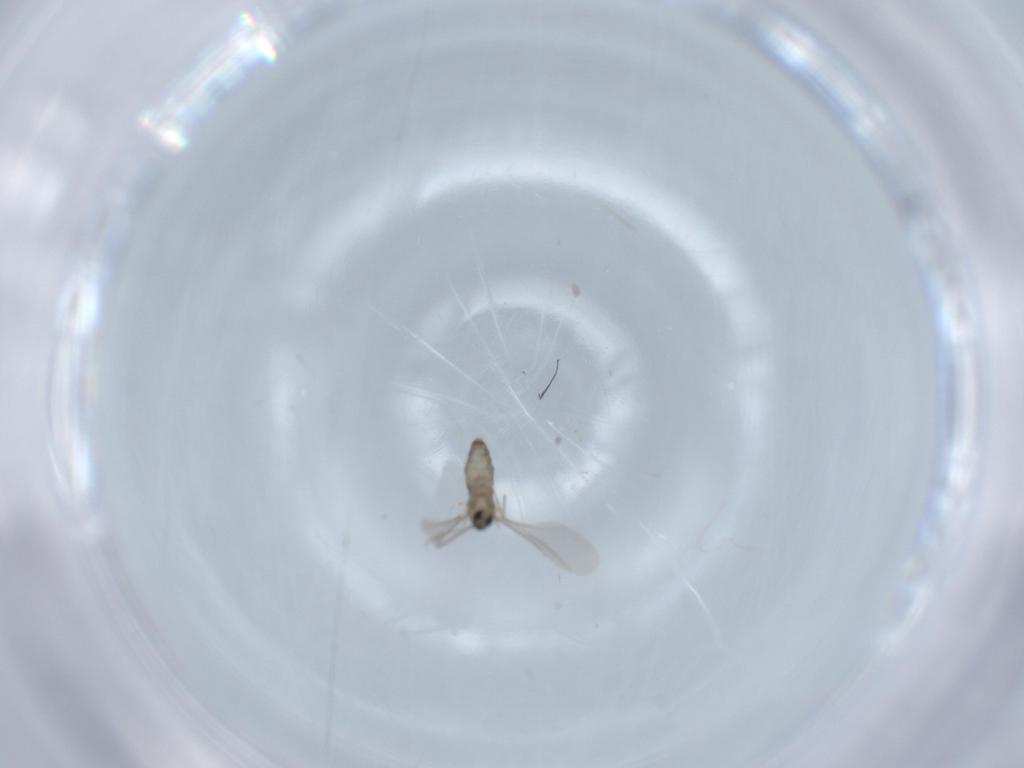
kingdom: Animalia
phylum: Arthropoda
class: Insecta
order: Diptera
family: Cecidomyiidae
